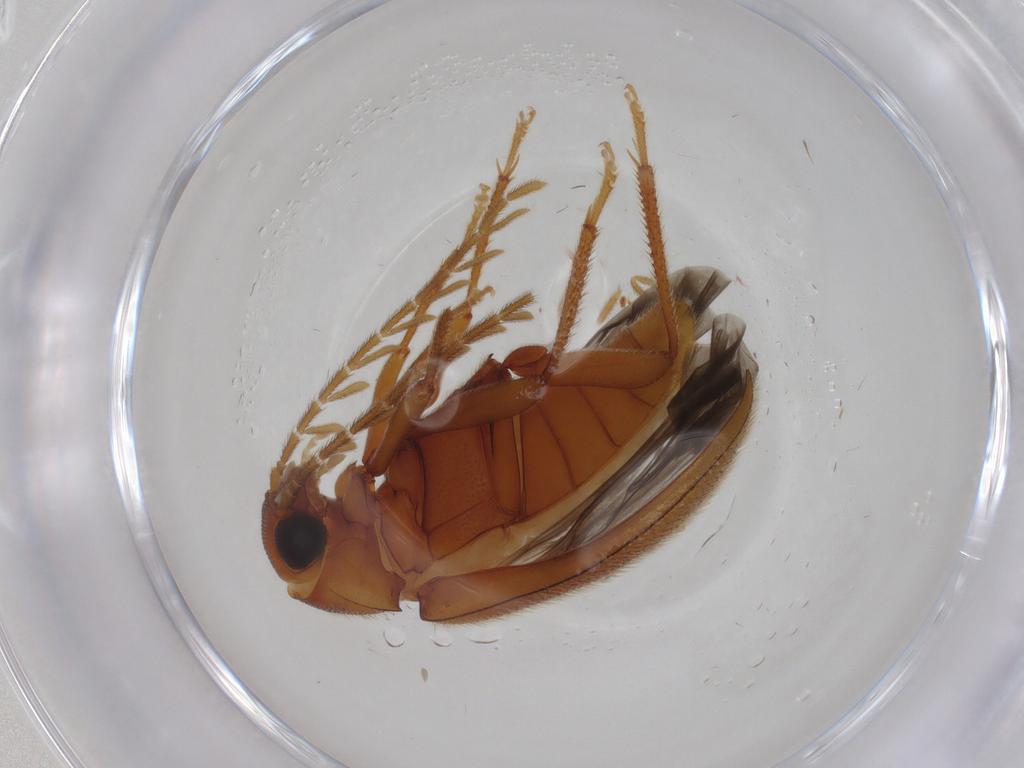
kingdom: Animalia
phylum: Arthropoda
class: Insecta
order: Coleoptera
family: Ptilodactylidae
